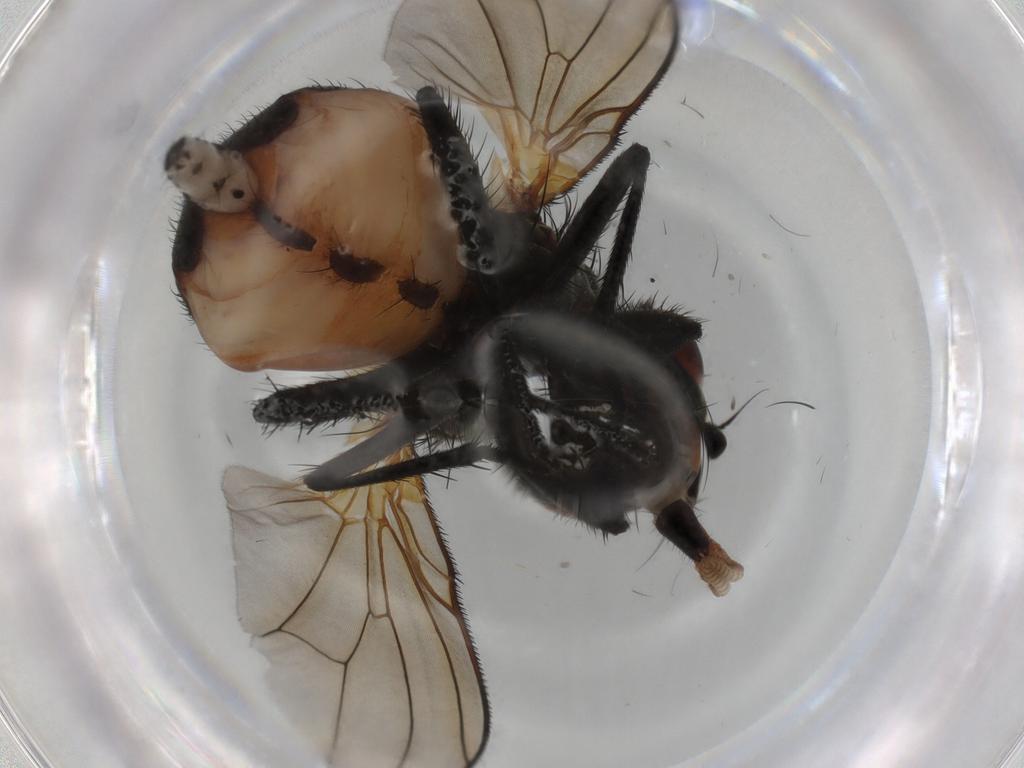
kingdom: Animalia
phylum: Arthropoda
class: Insecta
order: Diptera
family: Anthomyiidae
